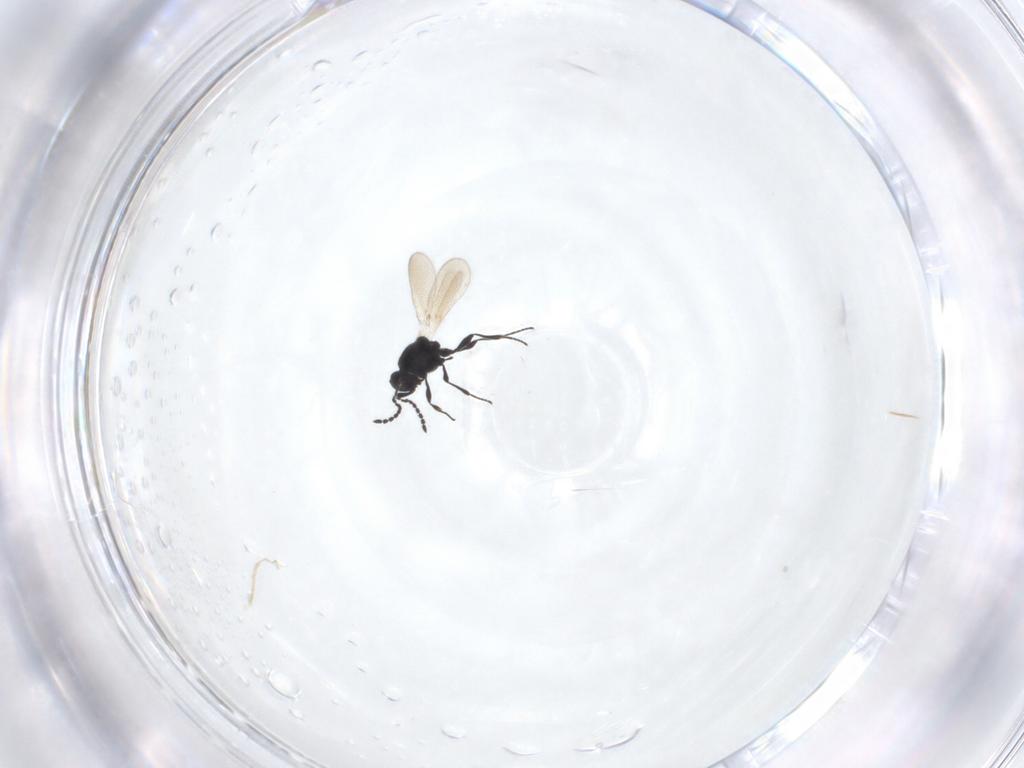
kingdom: Animalia
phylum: Arthropoda
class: Insecta
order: Hymenoptera
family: Platygastridae
